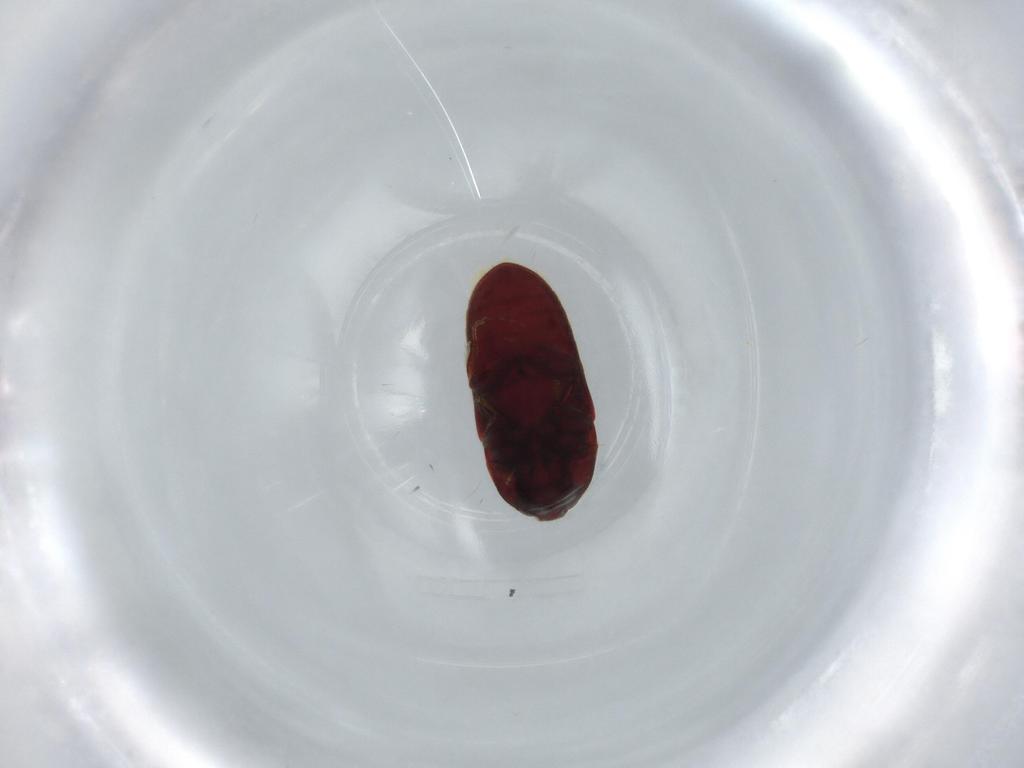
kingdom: Animalia
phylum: Arthropoda
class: Insecta
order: Coleoptera
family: Throscidae
